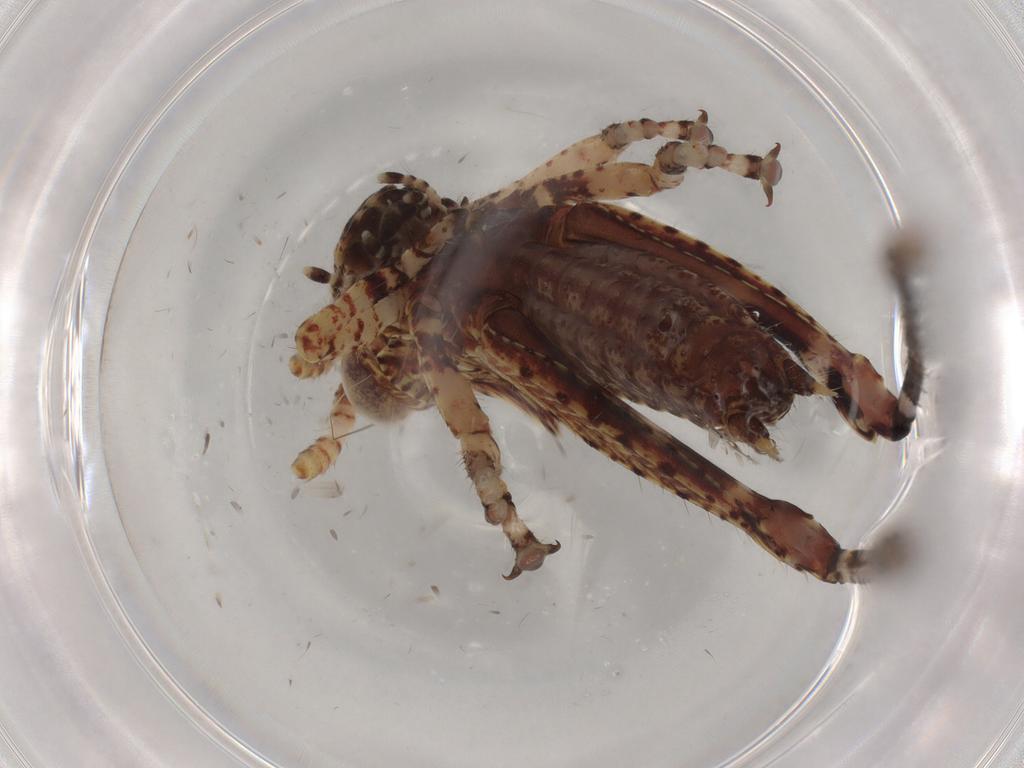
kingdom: Animalia
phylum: Arthropoda
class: Insecta
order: Orthoptera
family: Acrididae
